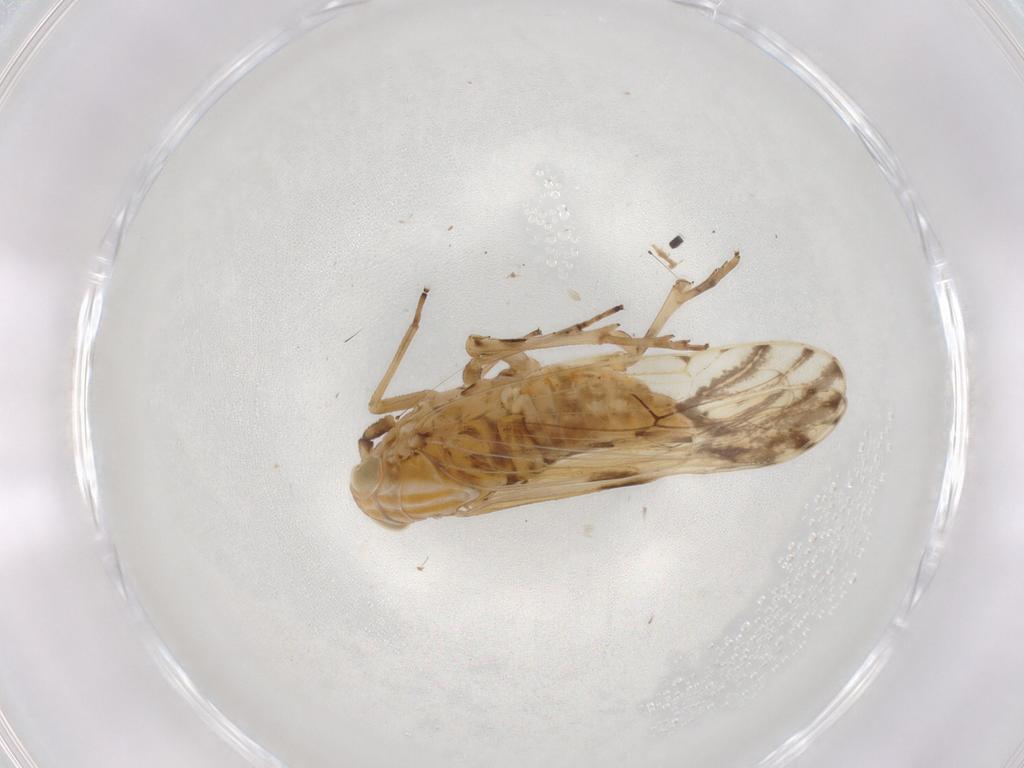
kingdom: Animalia
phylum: Arthropoda
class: Insecta
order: Hemiptera
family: Delphacidae
